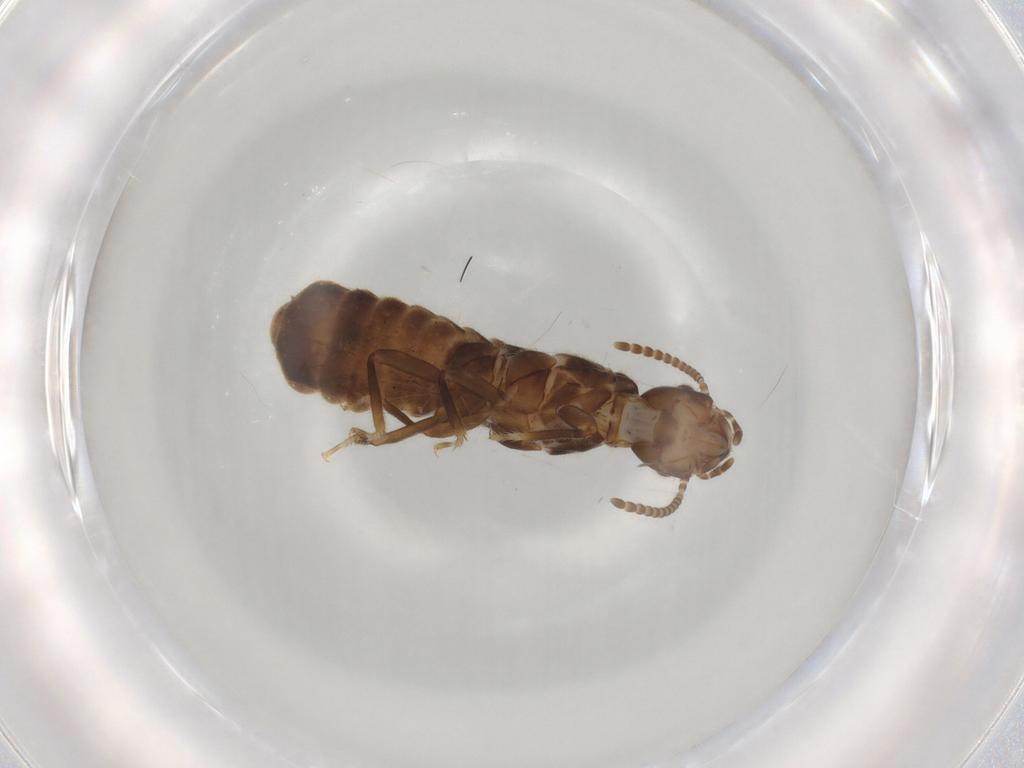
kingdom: Animalia
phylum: Arthropoda
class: Insecta
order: Blattodea
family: Termitidae
